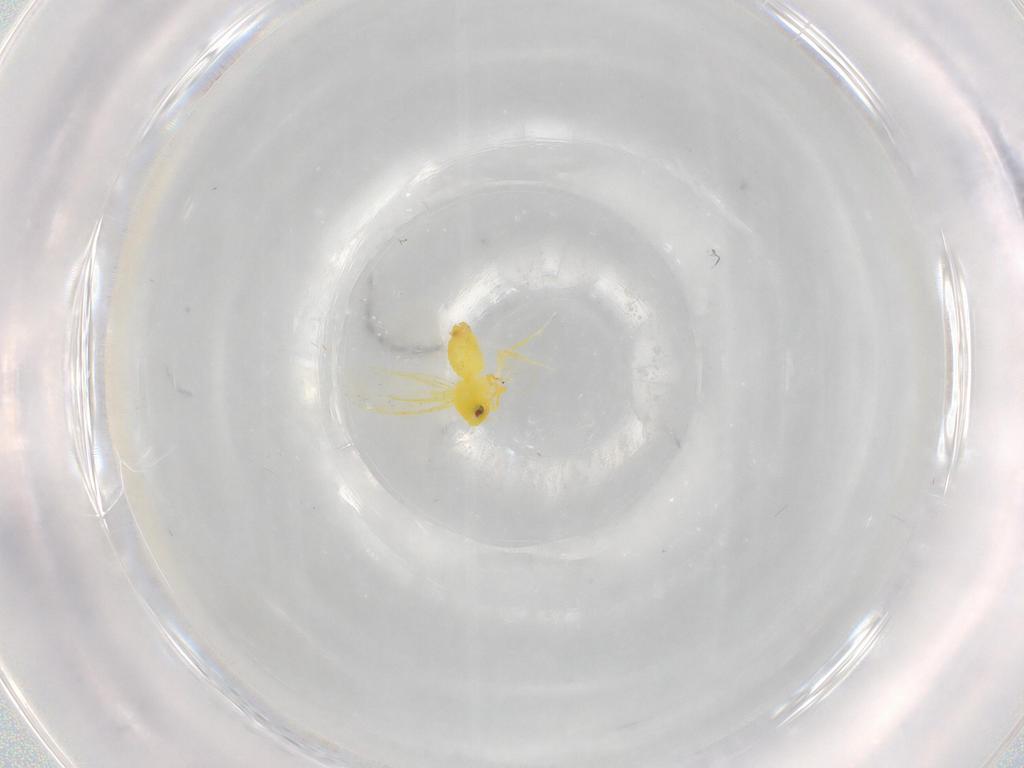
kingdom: Animalia
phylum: Arthropoda
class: Insecta
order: Hemiptera
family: Aleyrodidae
